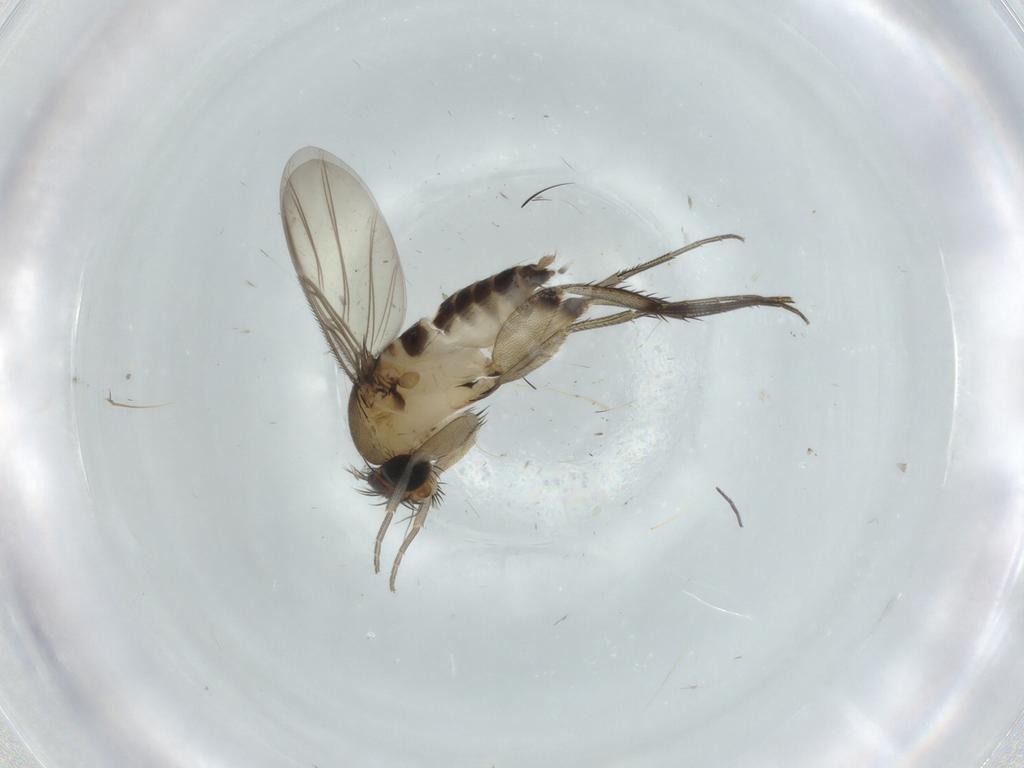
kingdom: Animalia
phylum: Arthropoda
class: Insecta
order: Diptera
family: Phoridae
